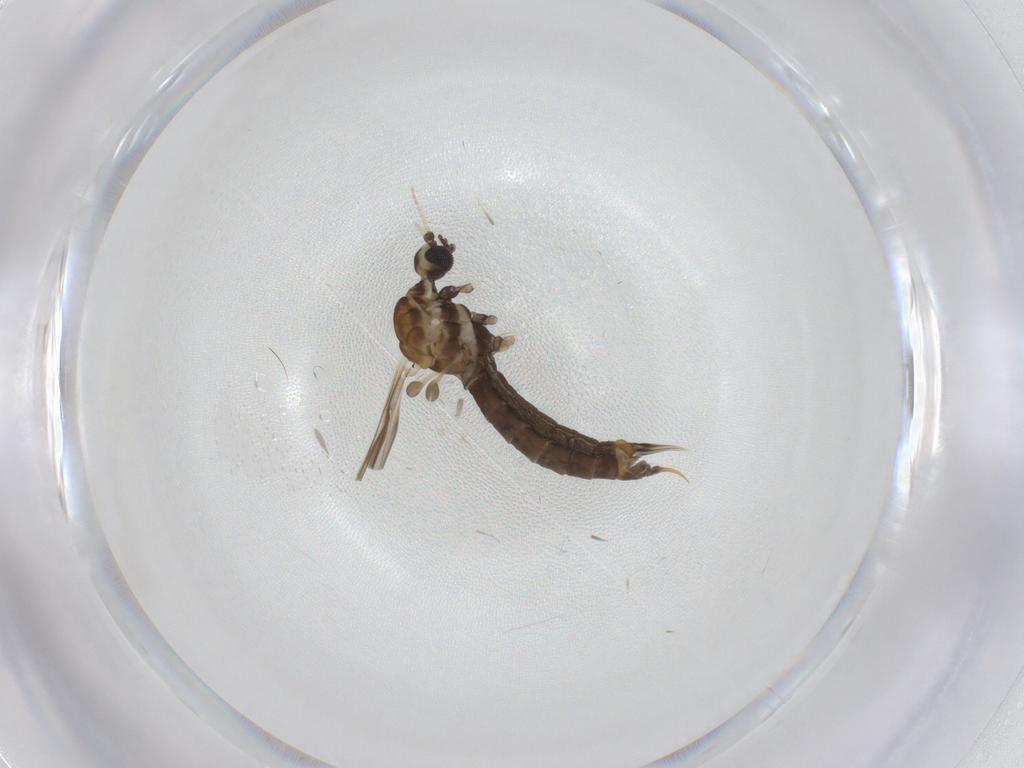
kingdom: Animalia
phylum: Arthropoda
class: Insecta
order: Diptera
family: Limoniidae
